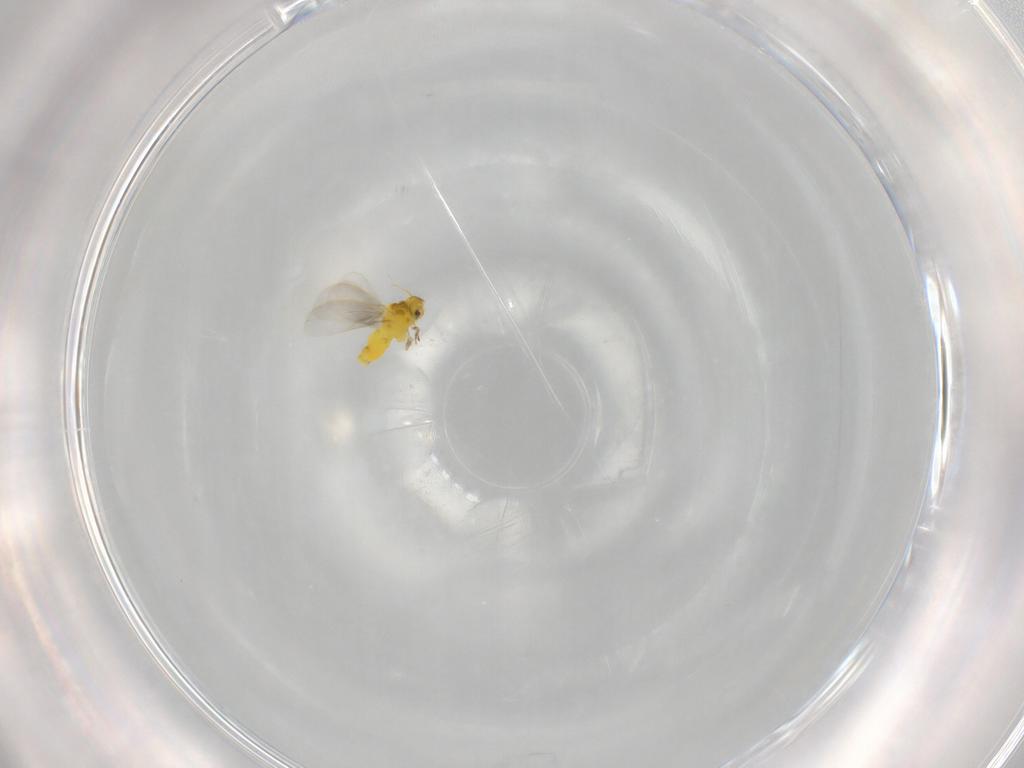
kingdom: Animalia
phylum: Arthropoda
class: Insecta
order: Hemiptera
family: Aleyrodidae
